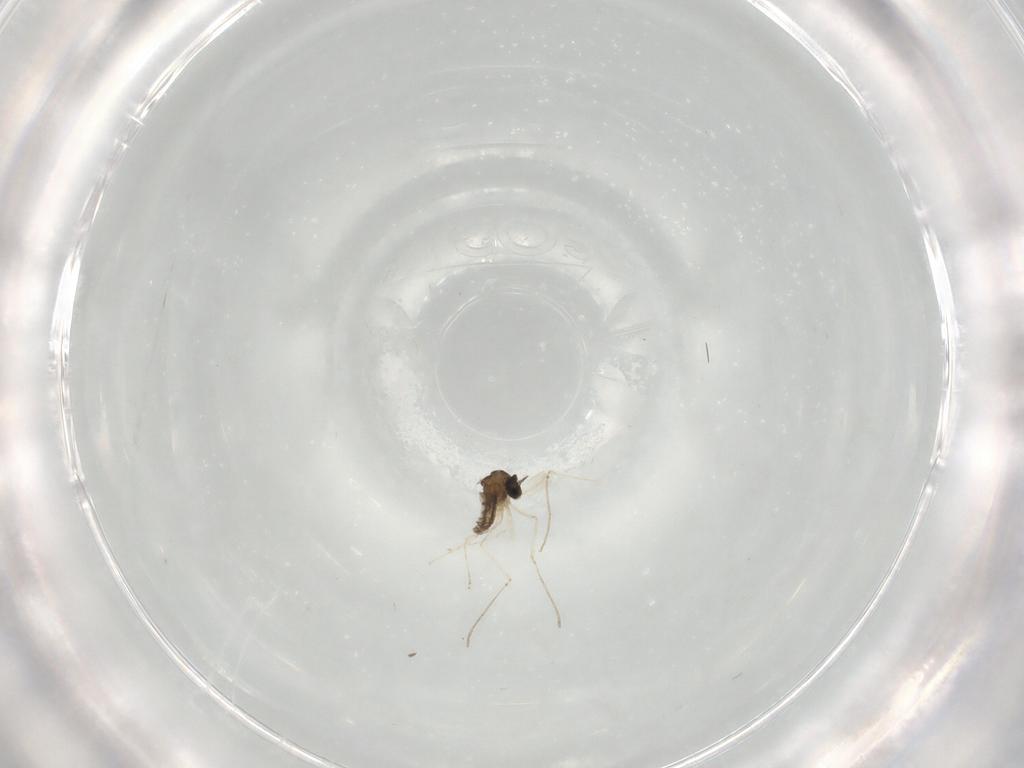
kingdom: Animalia
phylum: Arthropoda
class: Insecta
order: Diptera
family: Cecidomyiidae
